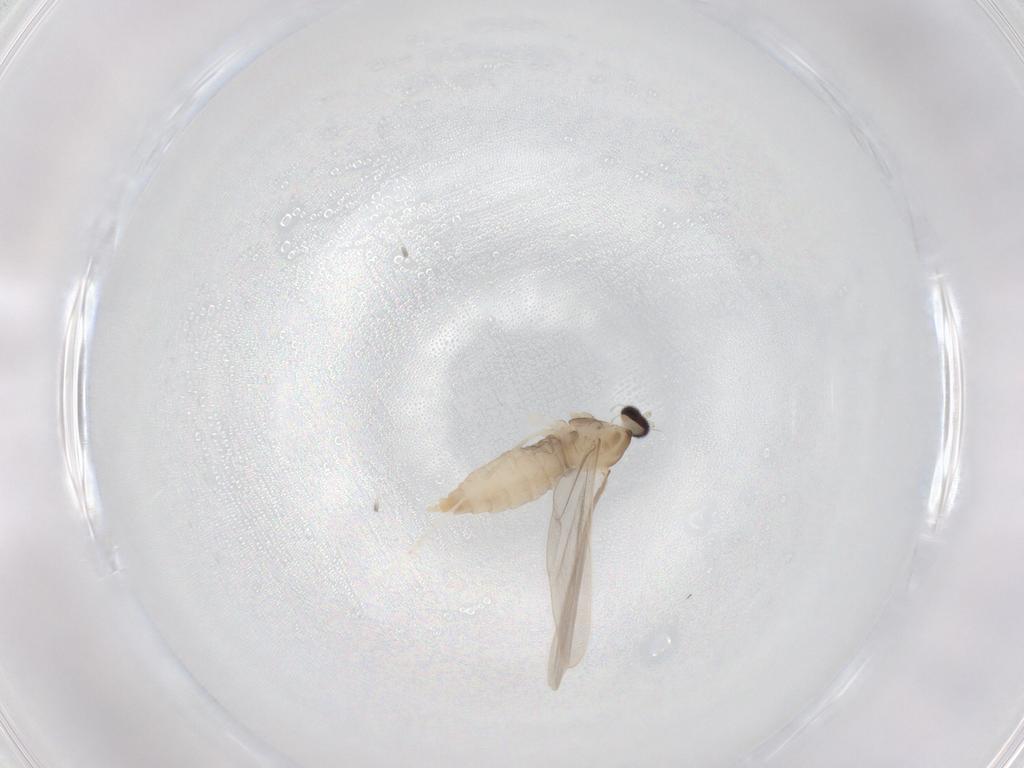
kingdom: Animalia
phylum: Arthropoda
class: Insecta
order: Diptera
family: Cecidomyiidae
